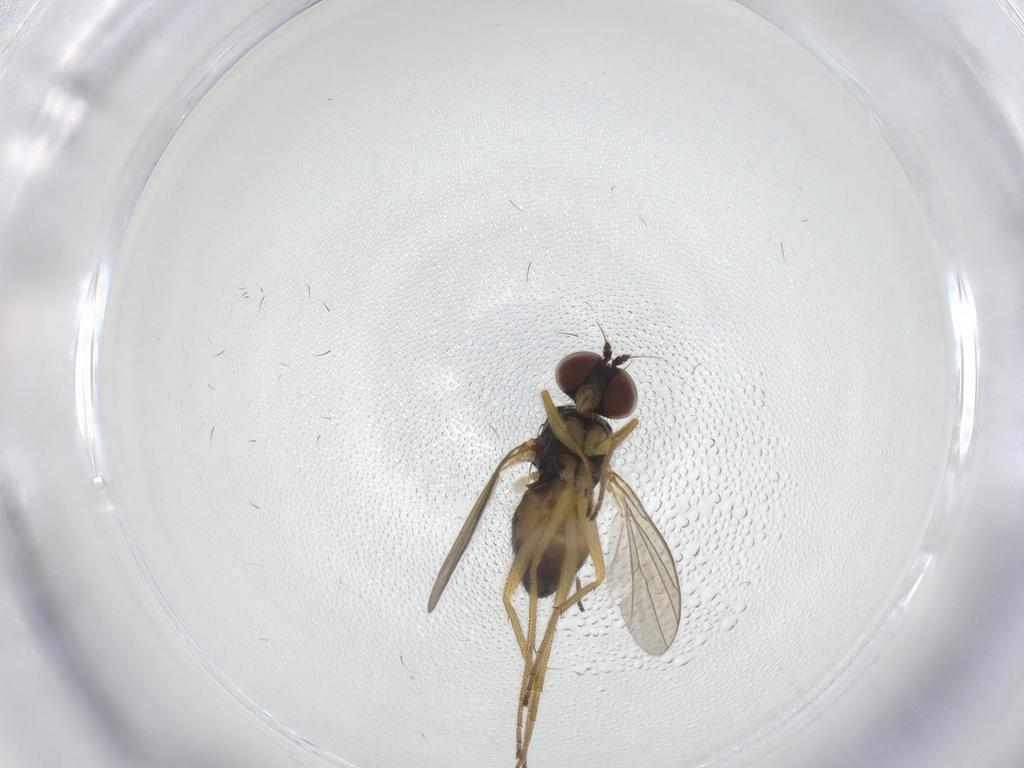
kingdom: Animalia
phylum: Arthropoda
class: Insecta
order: Diptera
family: Dolichopodidae
